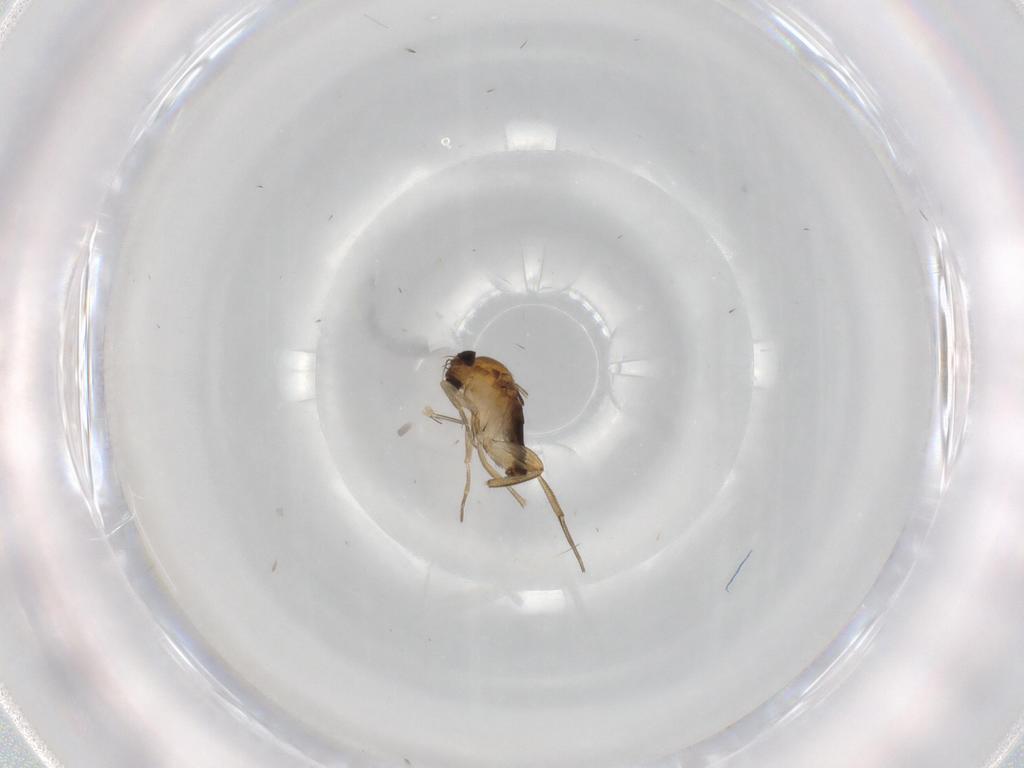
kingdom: Animalia
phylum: Arthropoda
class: Insecta
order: Diptera
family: Phoridae
